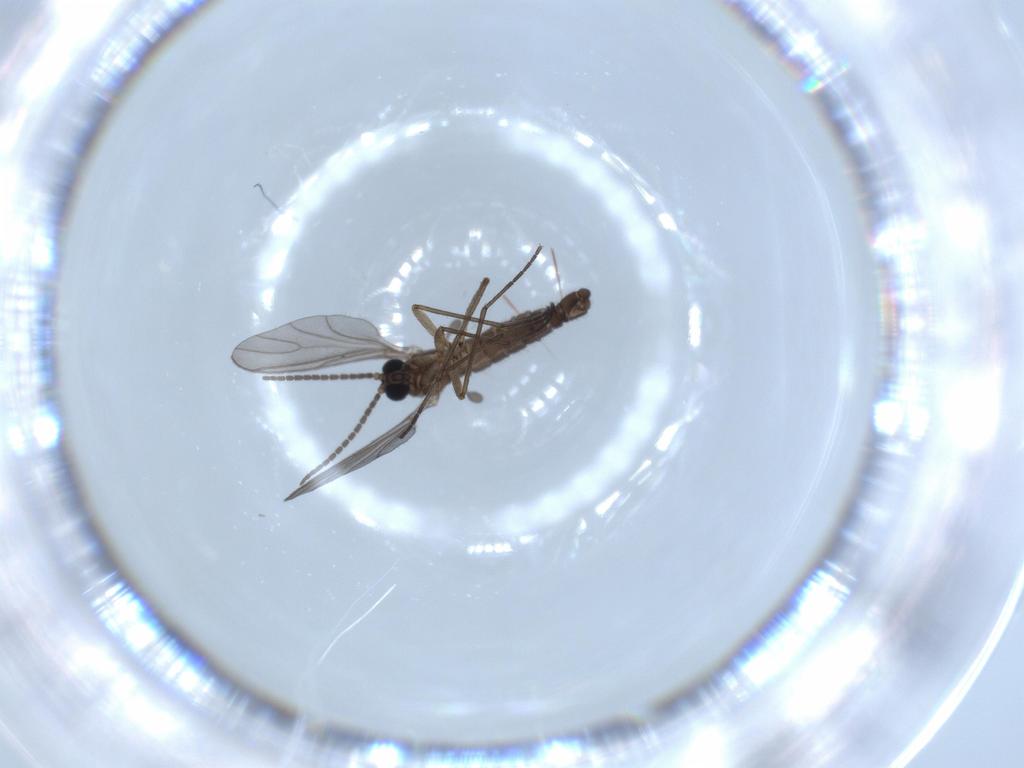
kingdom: Animalia
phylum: Arthropoda
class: Insecta
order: Diptera
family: Sciaridae
